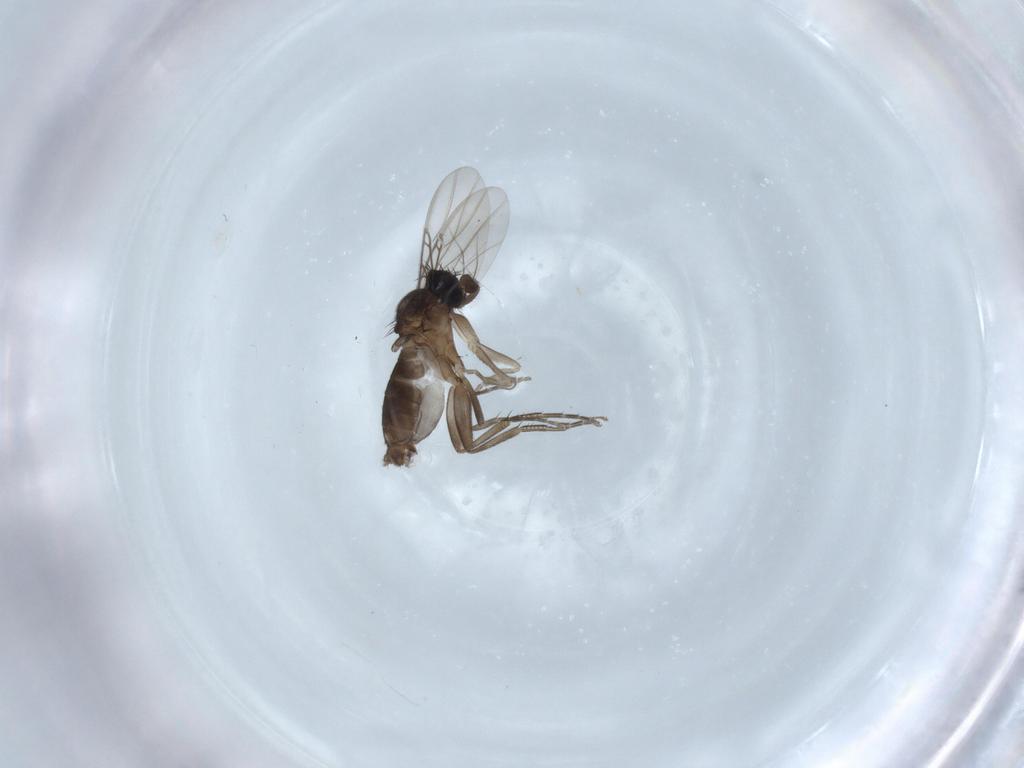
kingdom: Animalia
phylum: Arthropoda
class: Insecta
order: Diptera
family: Phoridae
